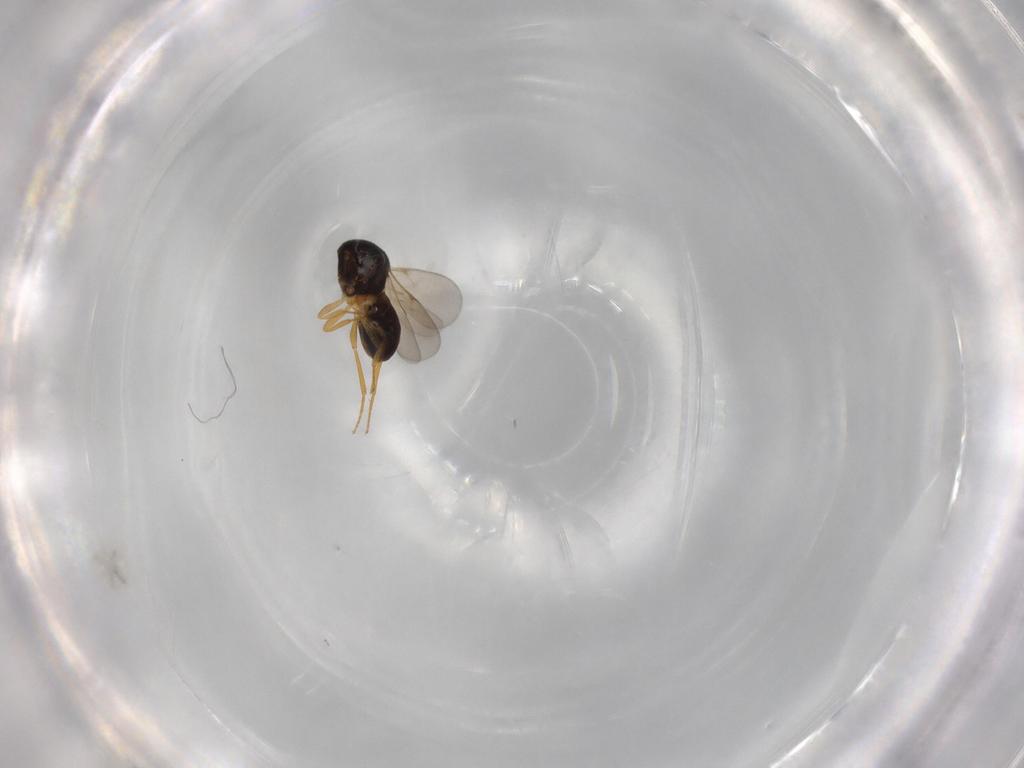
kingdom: Animalia
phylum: Arthropoda
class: Insecta
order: Hymenoptera
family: Scelionidae
